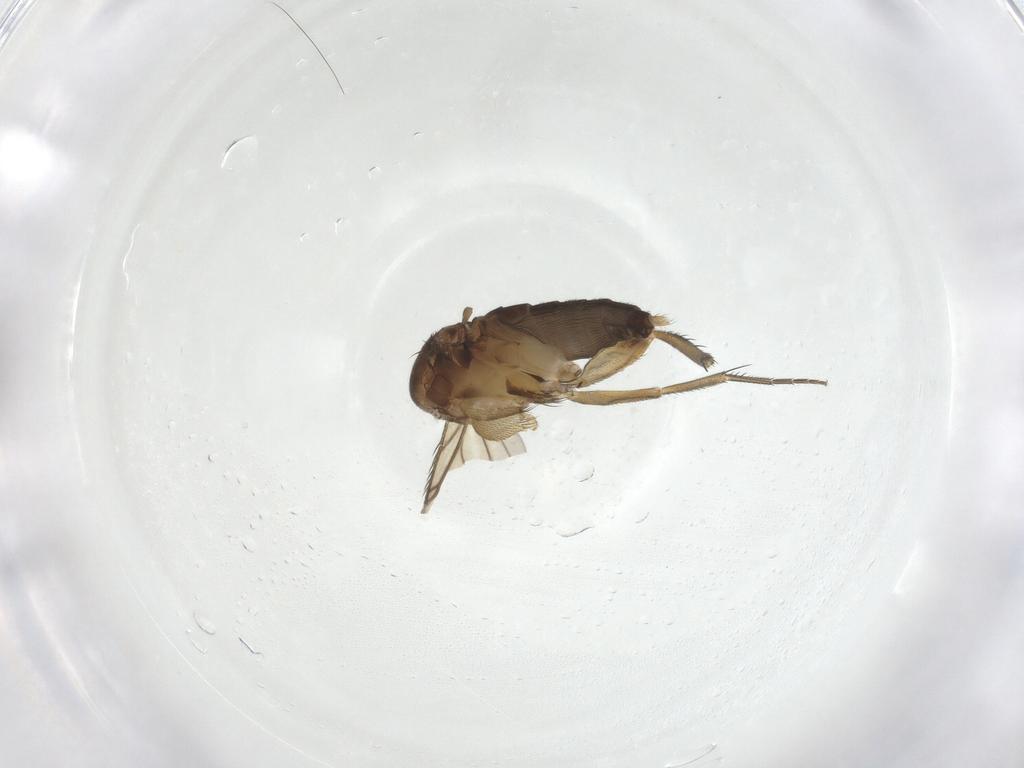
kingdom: Animalia
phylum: Arthropoda
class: Insecta
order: Diptera
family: Phoridae
